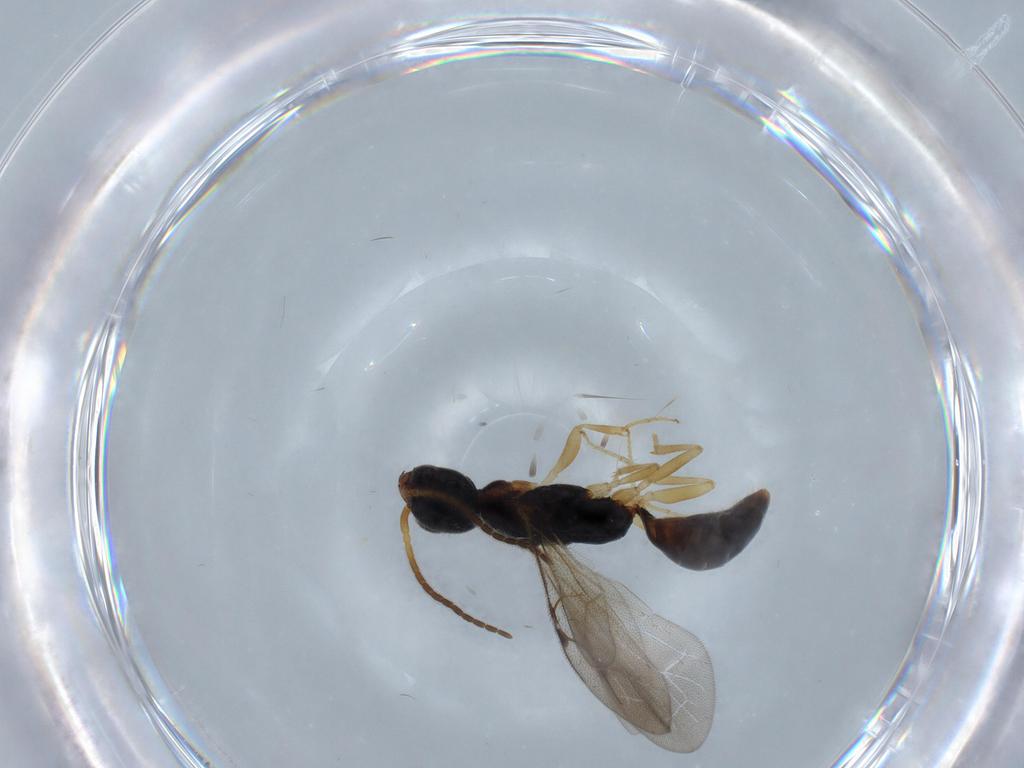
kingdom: Animalia
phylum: Arthropoda
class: Insecta
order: Hymenoptera
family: Bethylidae
